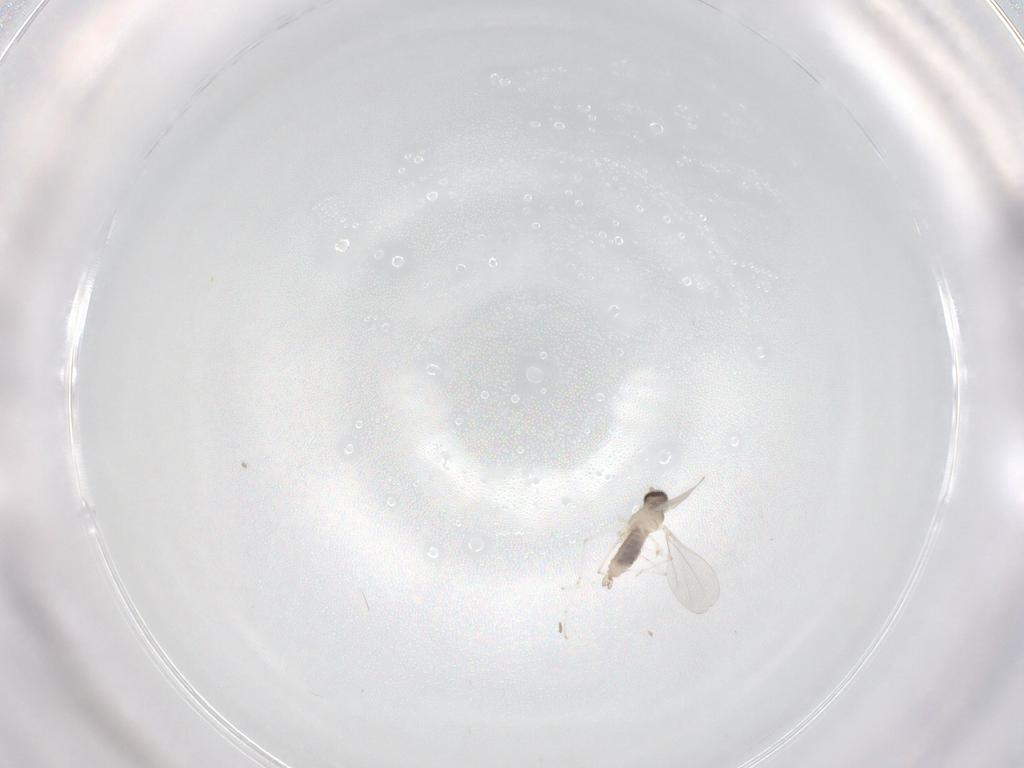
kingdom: Animalia
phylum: Arthropoda
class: Insecta
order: Diptera
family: Cecidomyiidae
